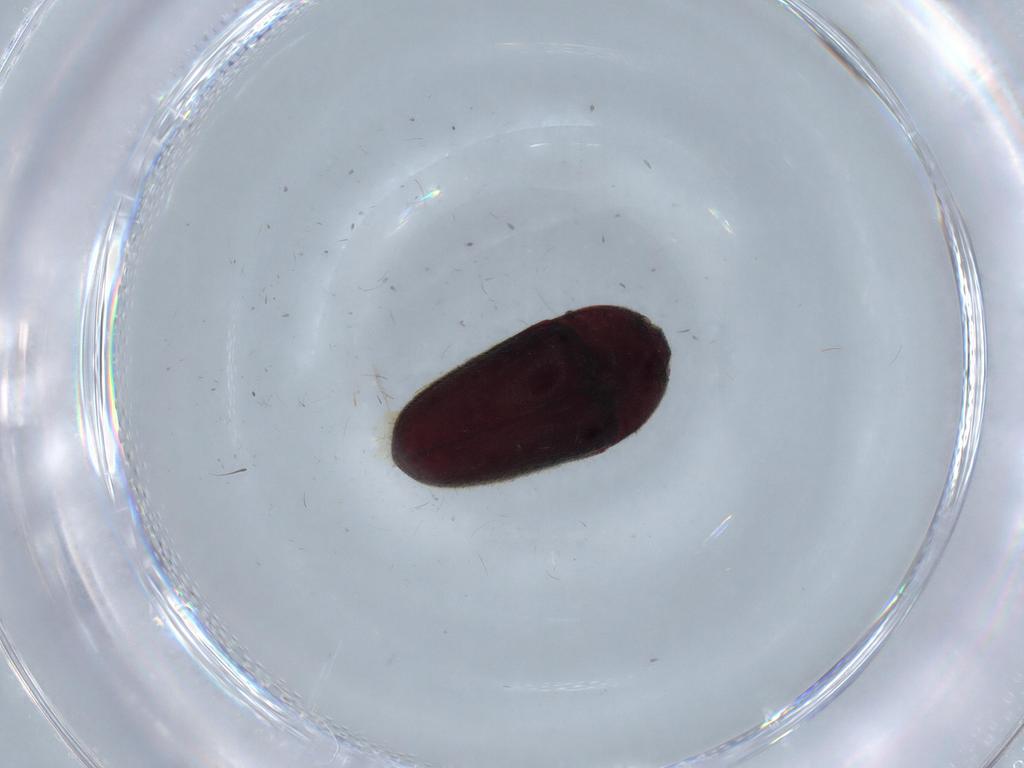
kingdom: Animalia
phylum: Arthropoda
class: Insecta
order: Coleoptera
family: Throscidae
